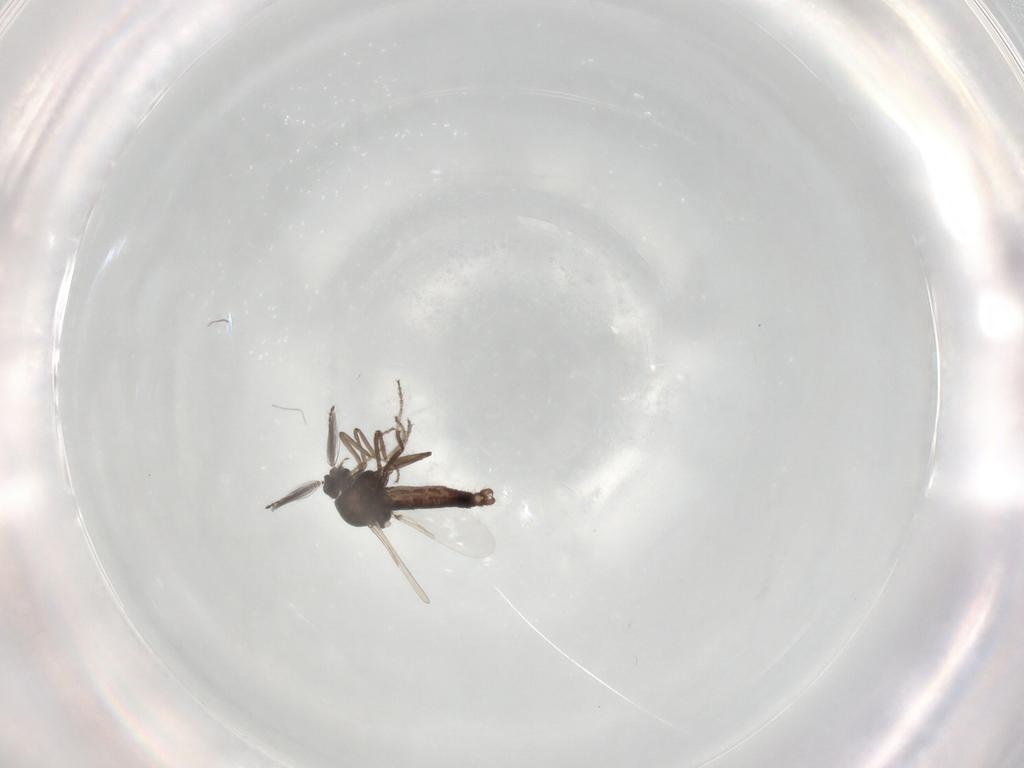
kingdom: Animalia
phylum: Arthropoda
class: Insecta
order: Diptera
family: Ceratopogonidae
